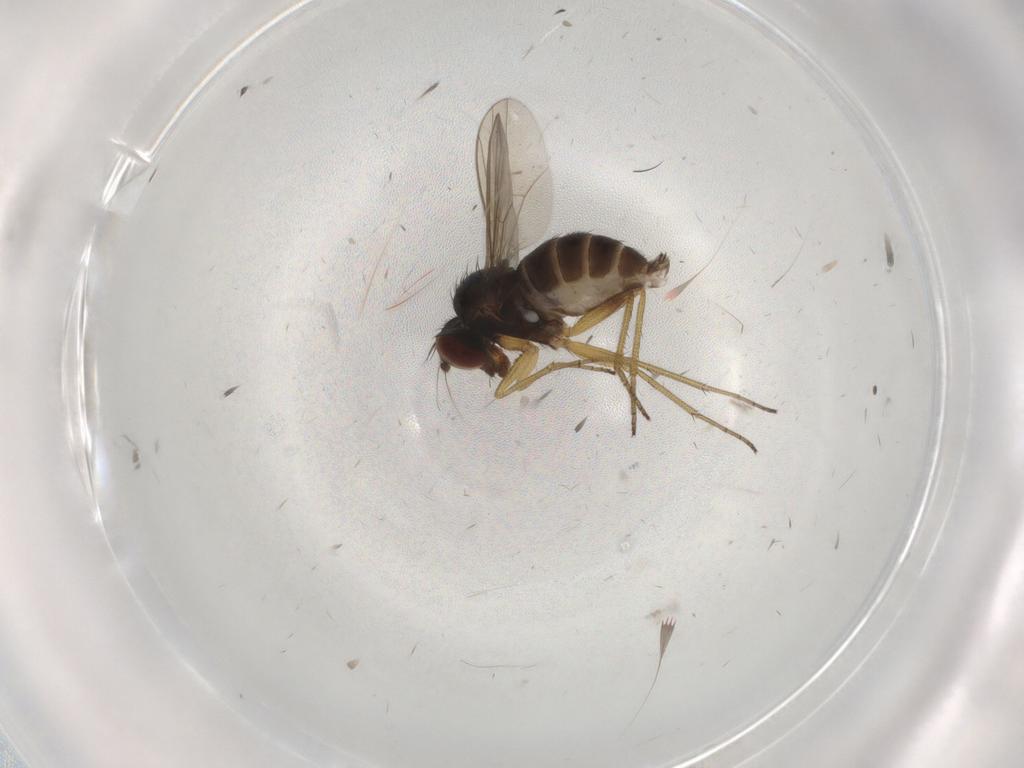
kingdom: Animalia
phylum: Arthropoda
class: Insecta
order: Diptera
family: Dolichopodidae
